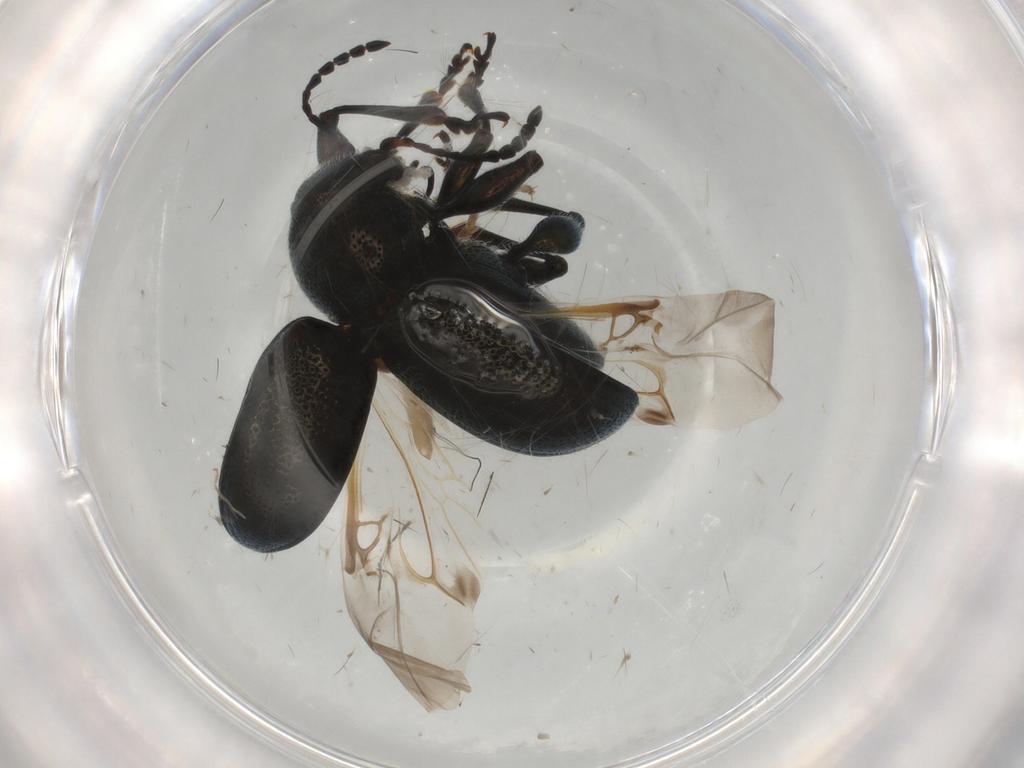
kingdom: Animalia
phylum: Arthropoda
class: Insecta
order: Coleoptera
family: Chrysomelidae
